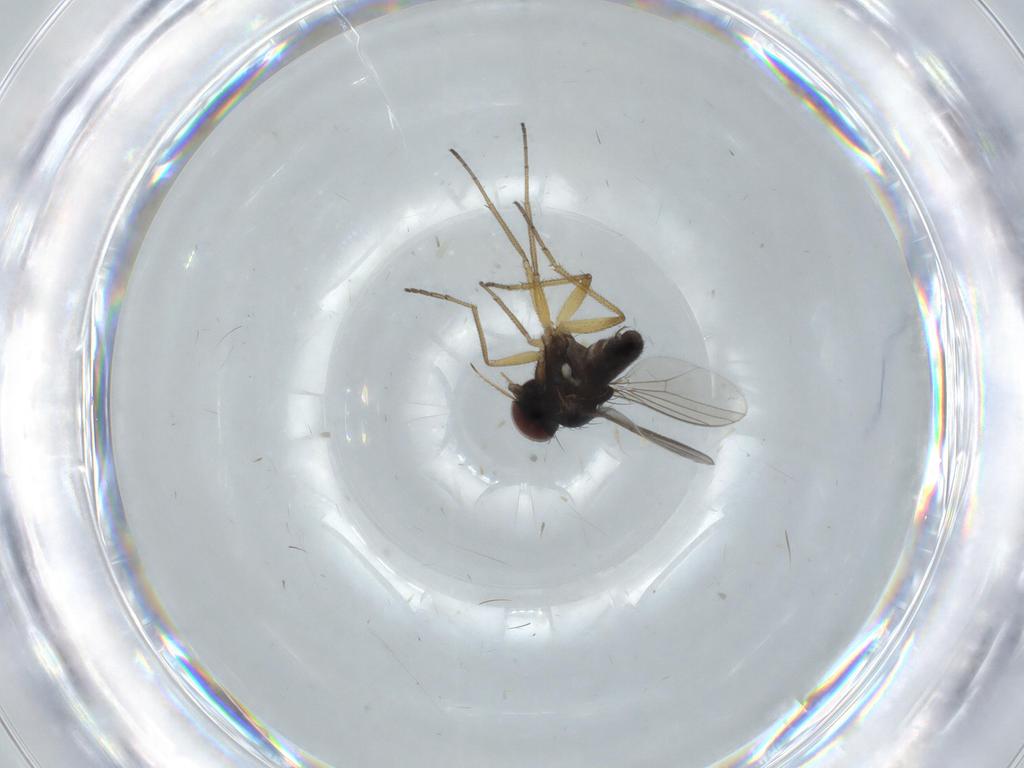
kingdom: Animalia
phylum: Arthropoda
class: Insecta
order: Diptera
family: Dolichopodidae
